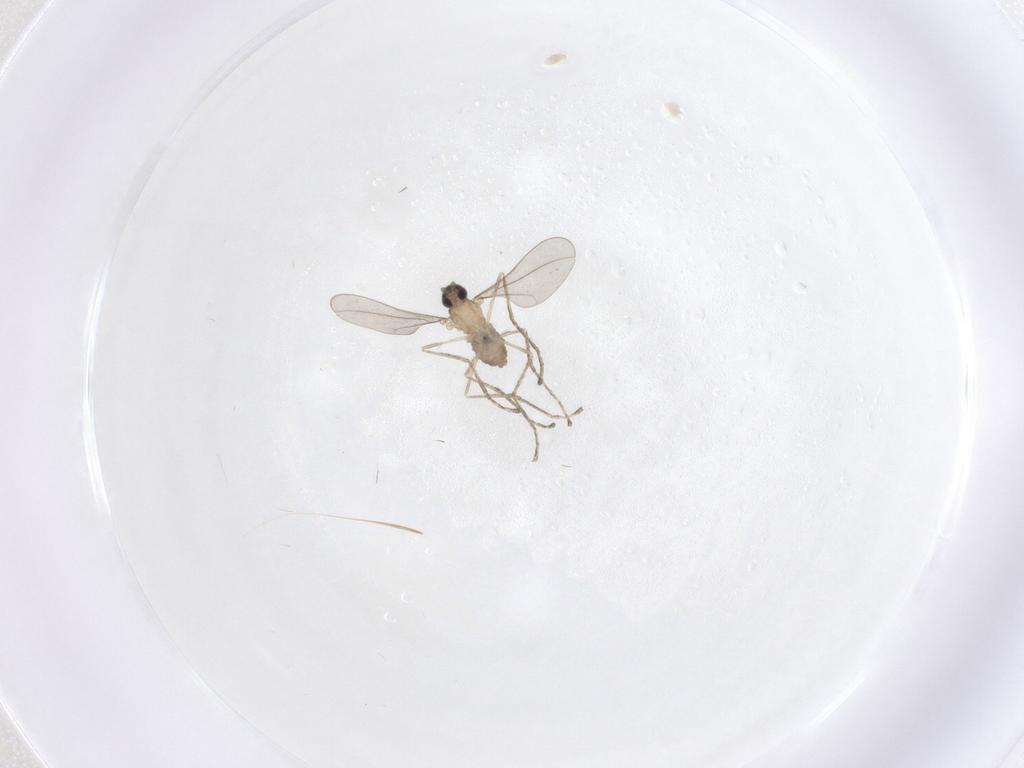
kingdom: Animalia
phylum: Arthropoda
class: Insecta
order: Diptera
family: Cecidomyiidae
